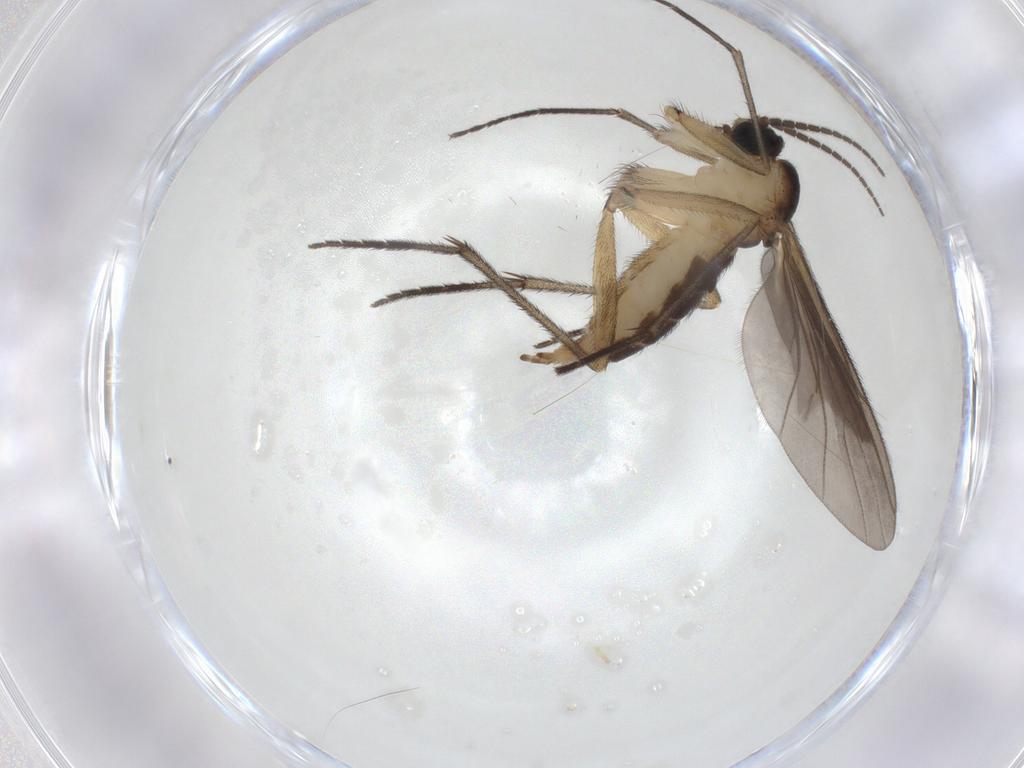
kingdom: Animalia
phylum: Arthropoda
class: Insecta
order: Diptera
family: Sciaridae
